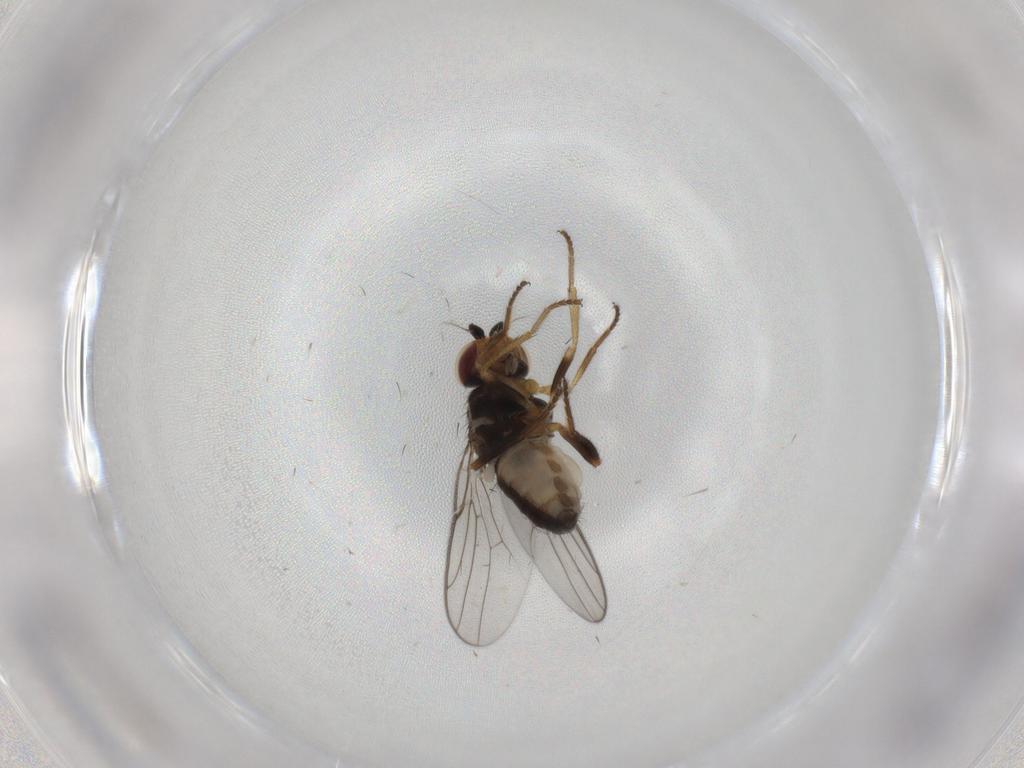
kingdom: Animalia
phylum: Arthropoda
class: Insecta
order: Diptera
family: Chloropidae
